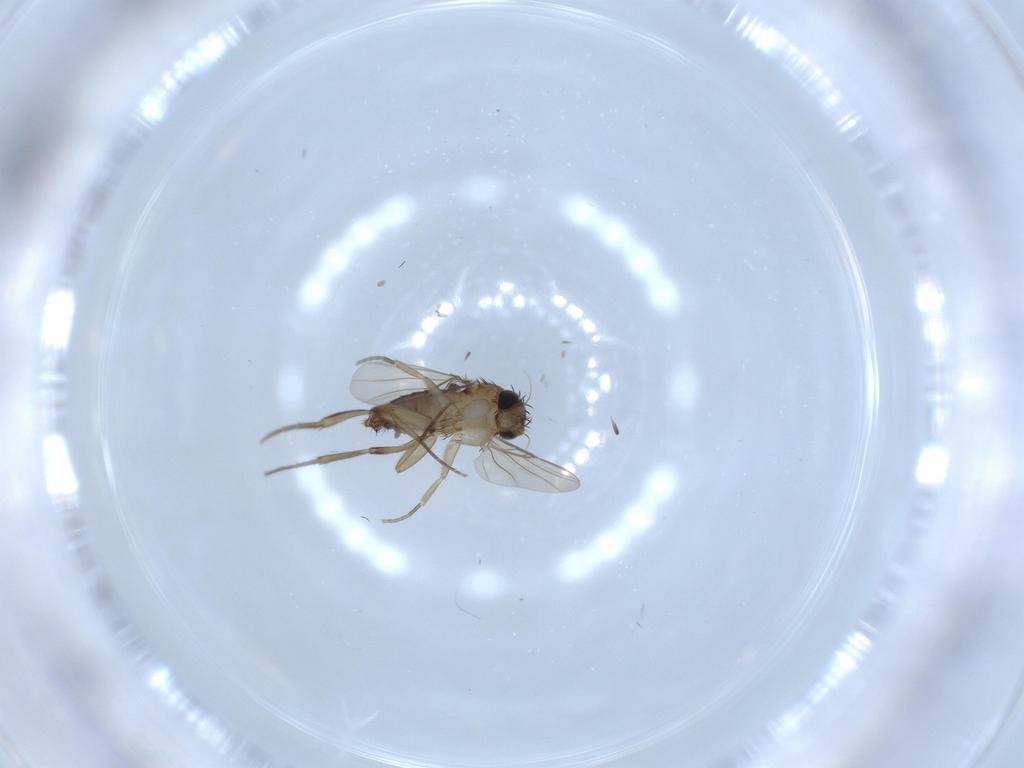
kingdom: Animalia
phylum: Arthropoda
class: Insecta
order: Diptera
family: Phoridae
